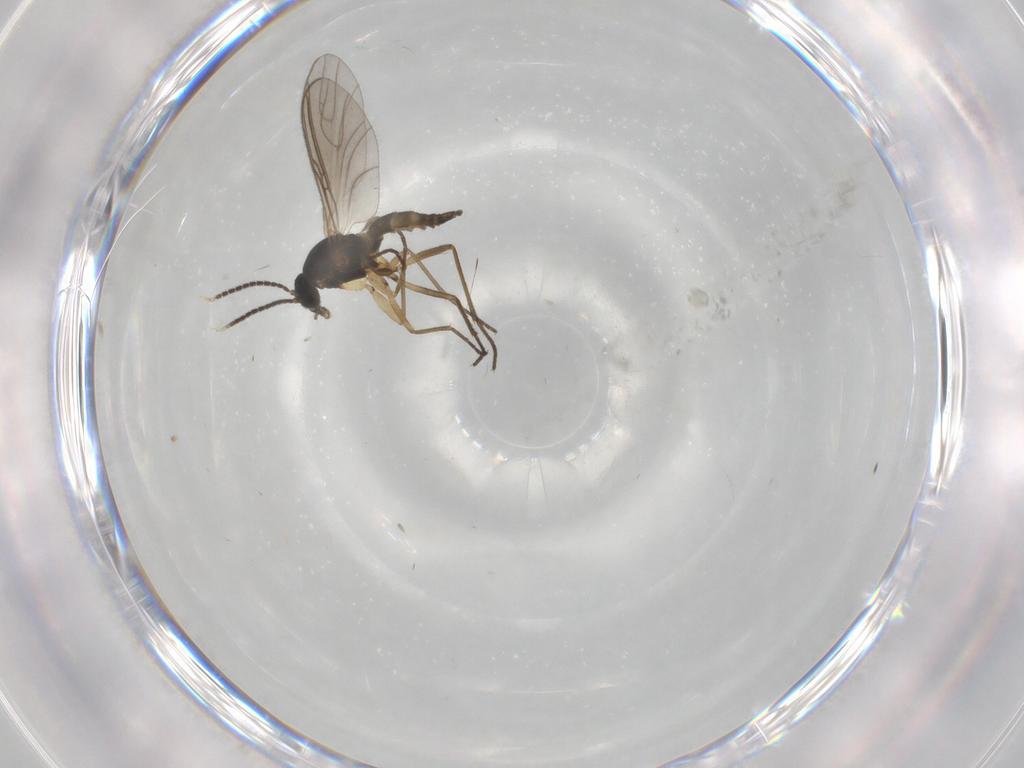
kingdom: Animalia
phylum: Arthropoda
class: Insecta
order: Diptera
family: Sciaridae
